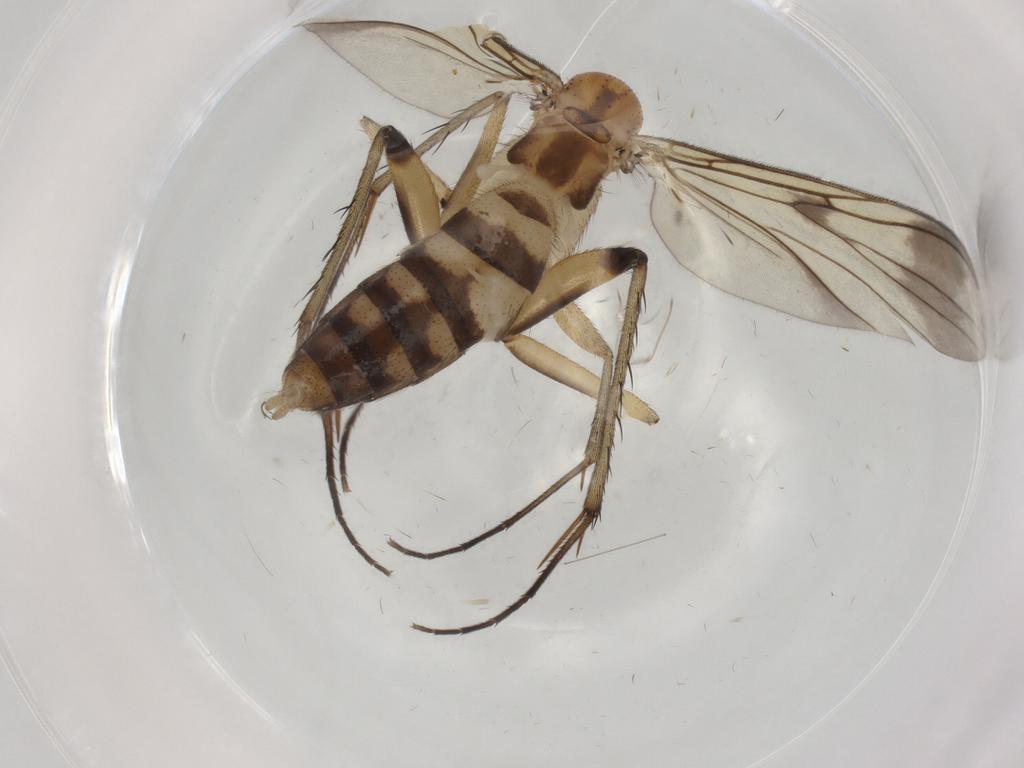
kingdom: Animalia
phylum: Arthropoda
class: Insecta
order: Diptera
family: Mycetophilidae
